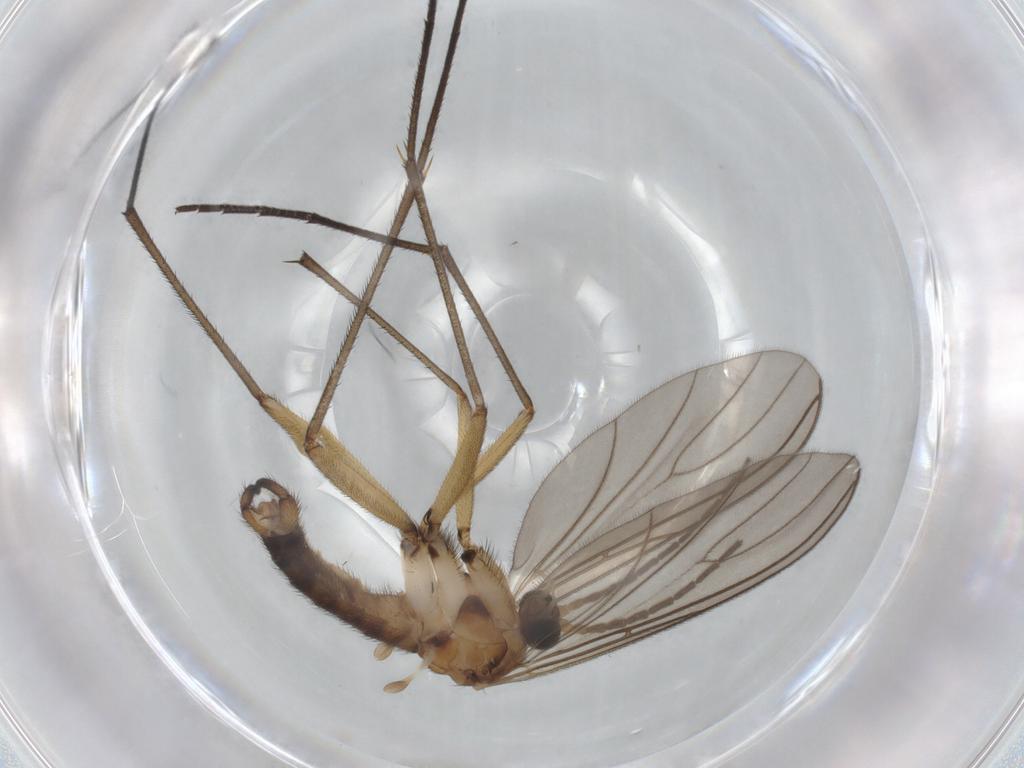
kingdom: Animalia
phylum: Arthropoda
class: Insecta
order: Diptera
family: Sciaridae
